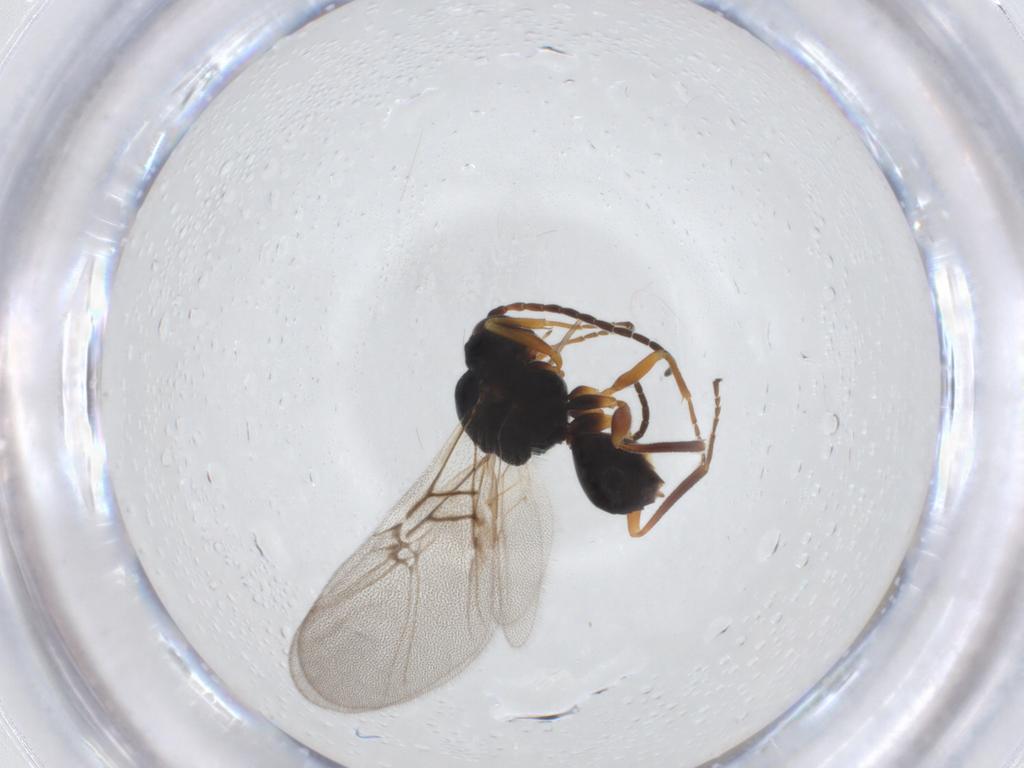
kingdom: Animalia
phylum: Arthropoda
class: Insecta
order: Hymenoptera
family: Cynipidae
